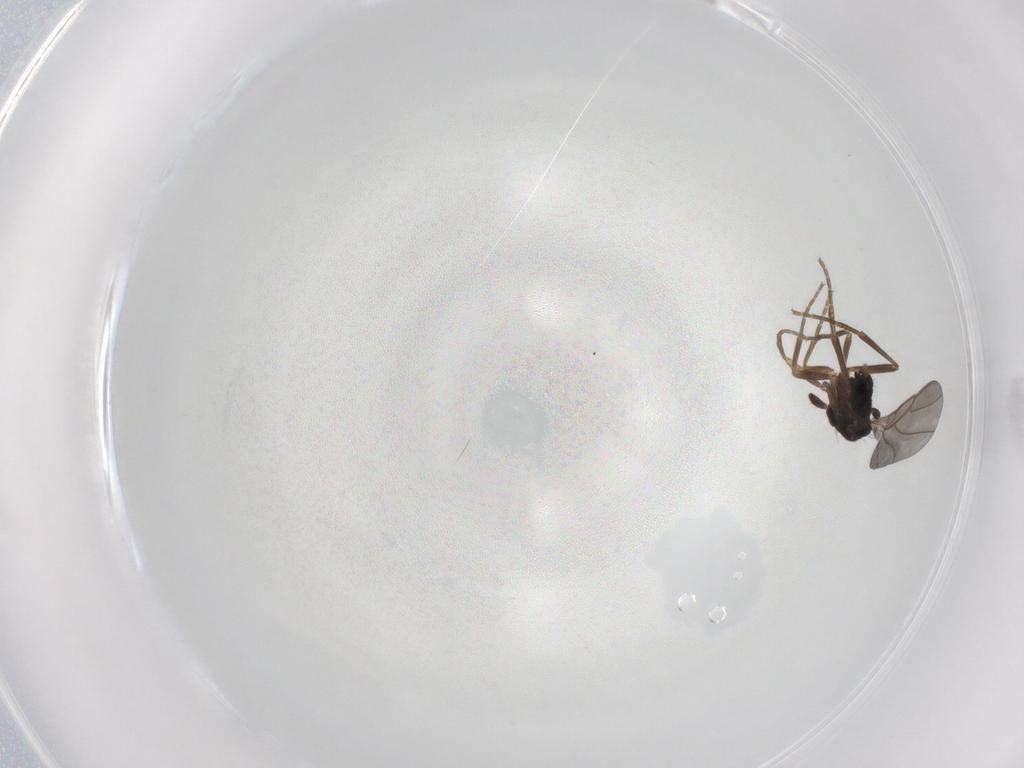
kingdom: Animalia
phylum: Arthropoda
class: Insecta
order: Diptera
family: Phoridae
